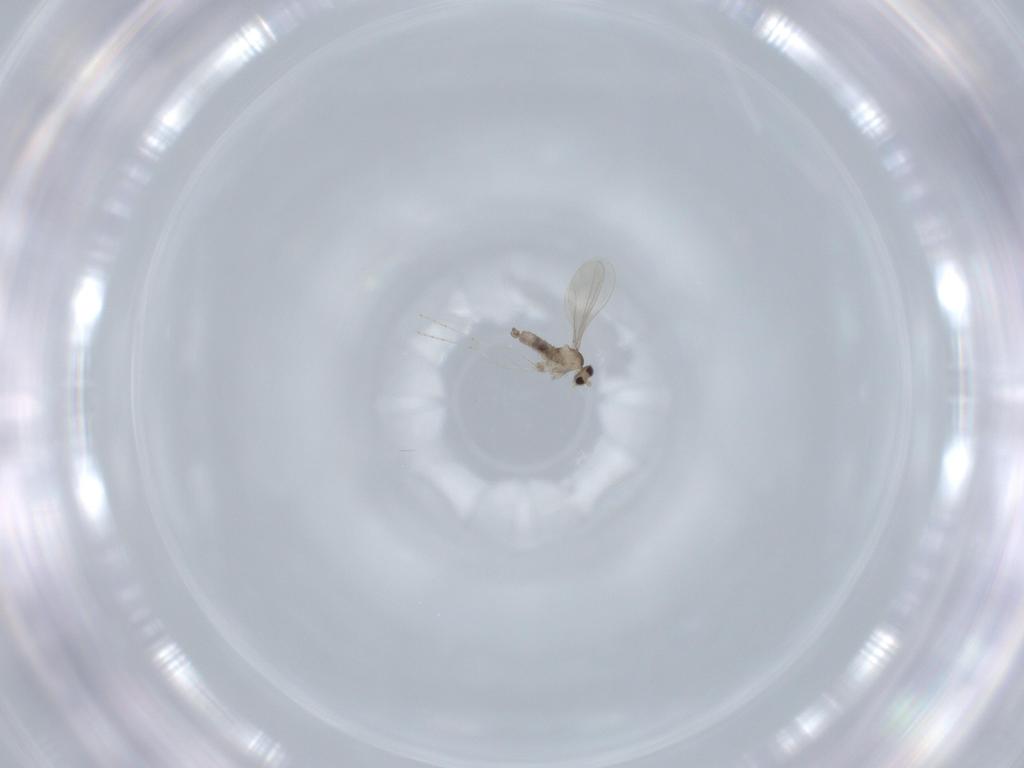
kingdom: Animalia
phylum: Arthropoda
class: Insecta
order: Diptera
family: Cecidomyiidae
